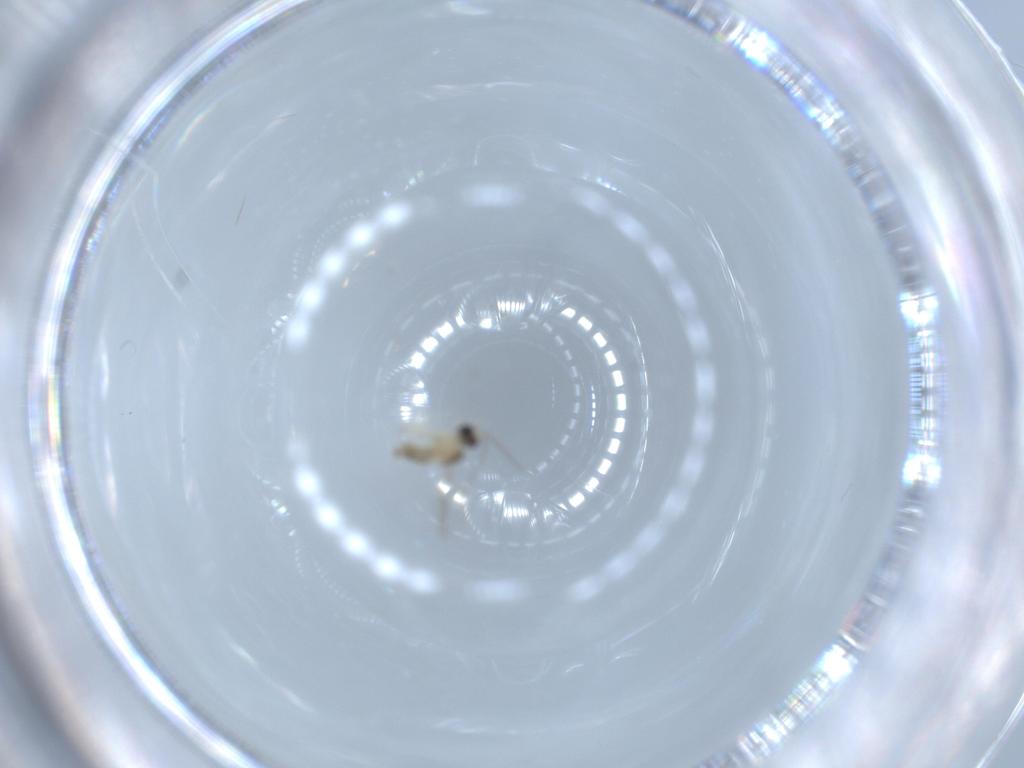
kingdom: Animalia
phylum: Arthropoda
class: Insecta
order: Diptera
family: Cecidomyiidae
